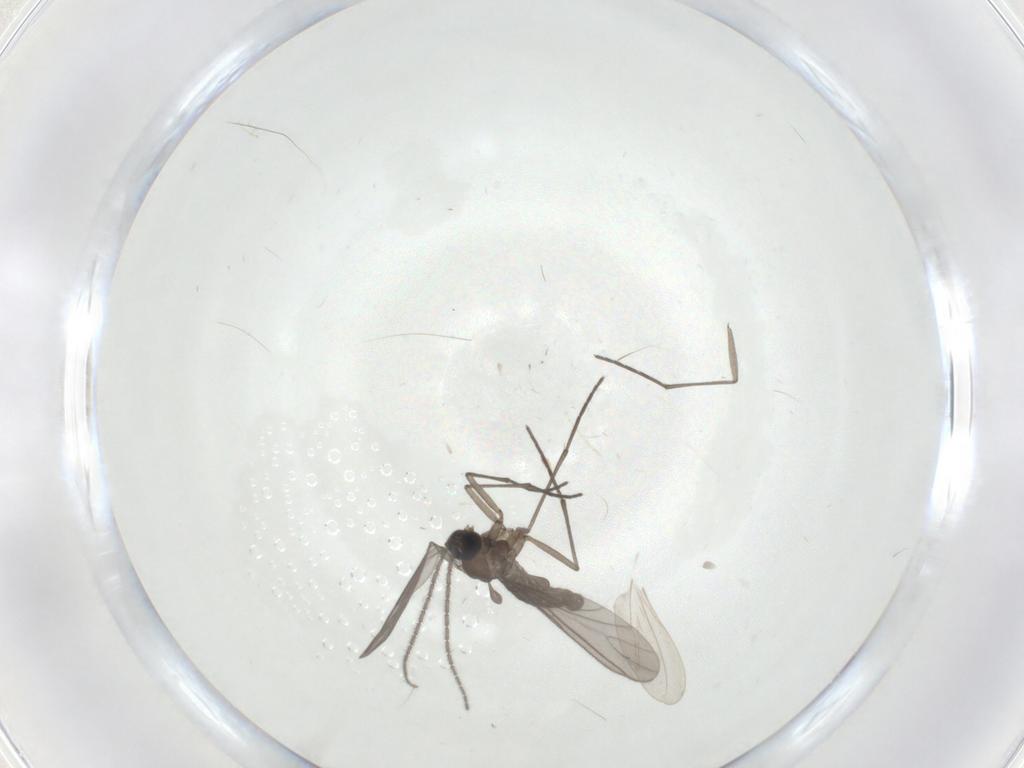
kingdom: Animalia
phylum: Arthropoda
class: Insecta
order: Diptera
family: Sciaridae
